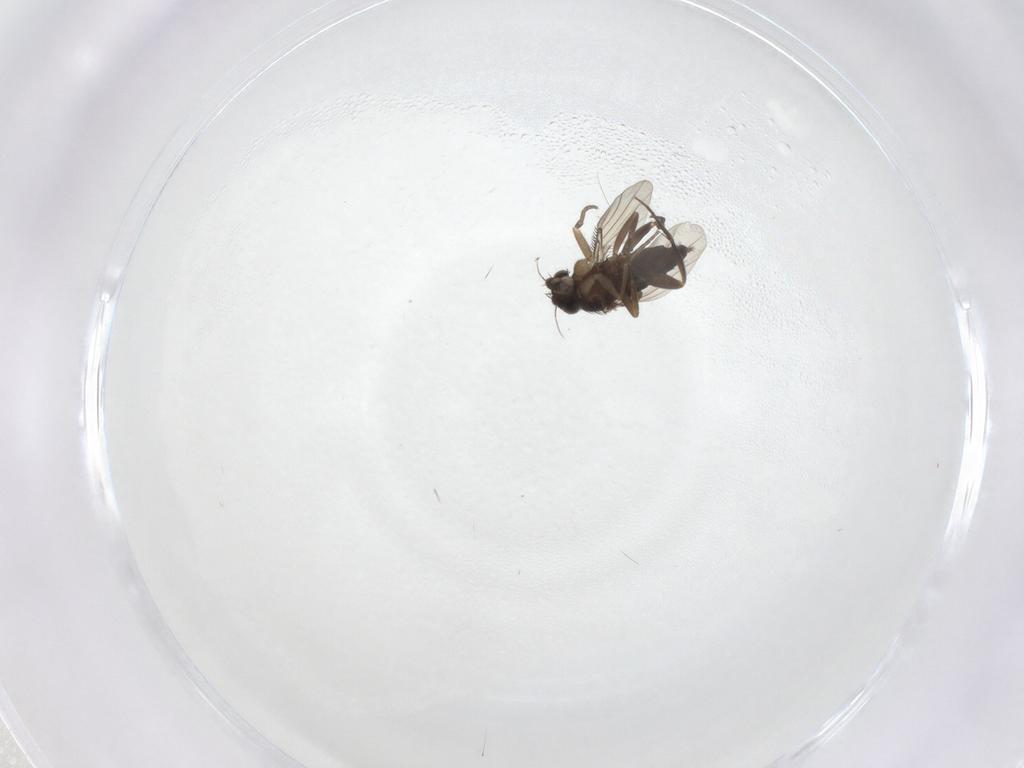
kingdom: Animalia
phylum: Arthropoda
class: Insecta
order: Diptera
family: Phoridae
